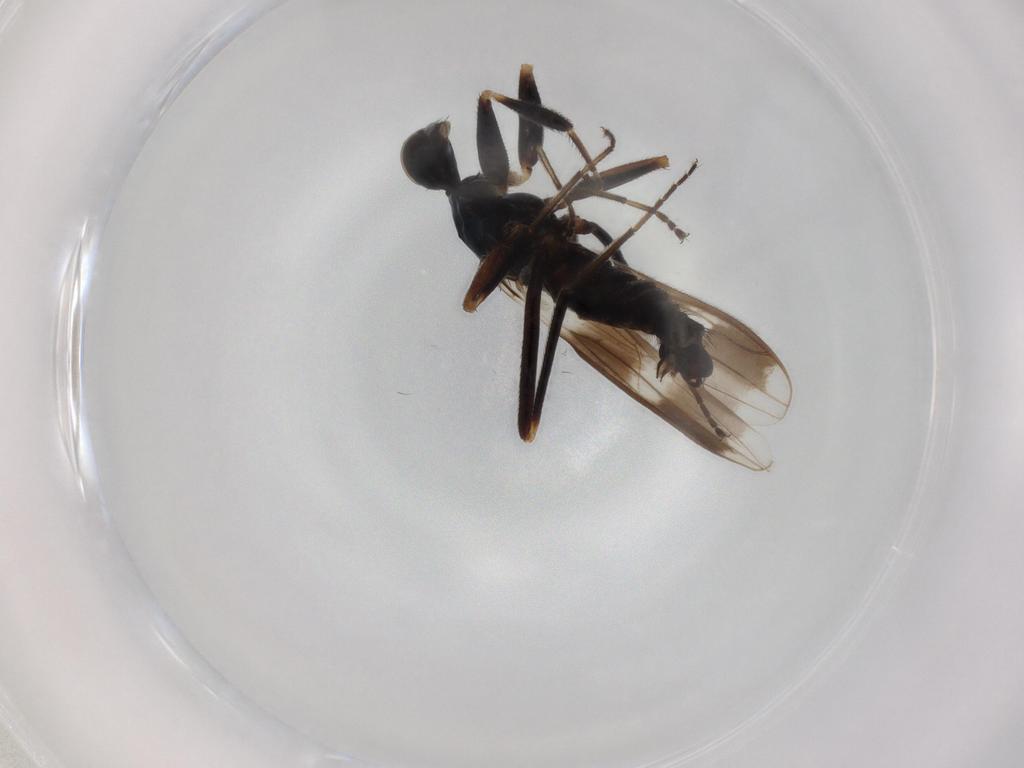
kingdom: Animalia
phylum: Arthropoda
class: Insecta
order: Diptera
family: Hybotidae
